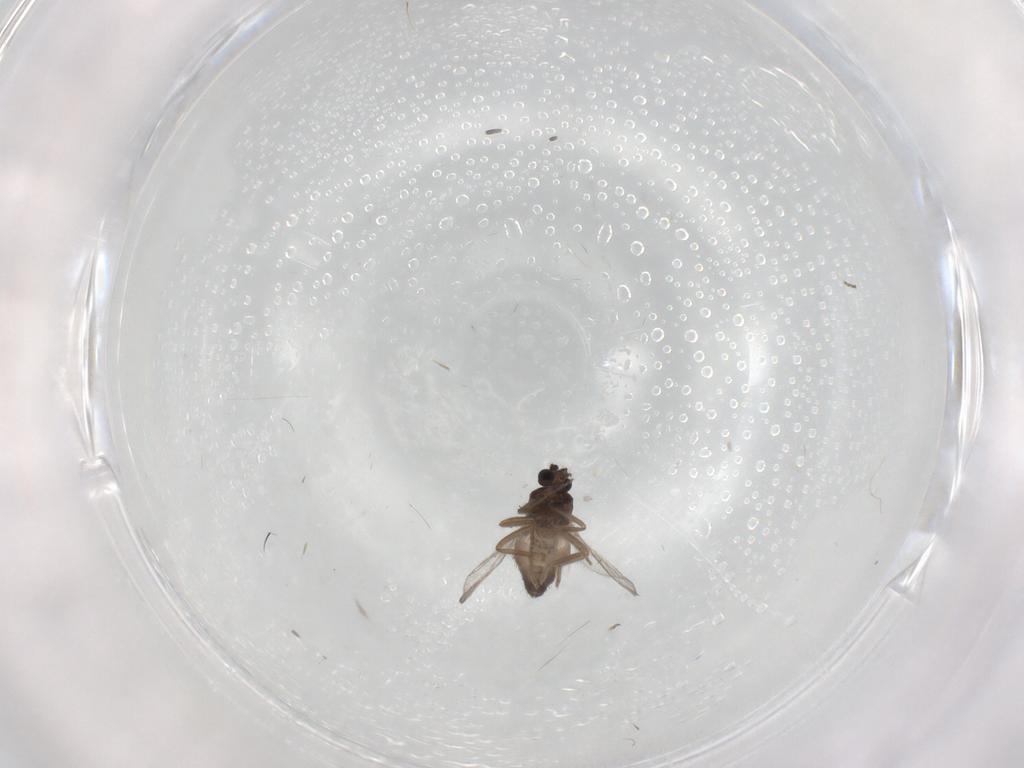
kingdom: Animalia
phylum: Arthropoda
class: Insecta
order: Diptera
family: Ceratopogonidae
